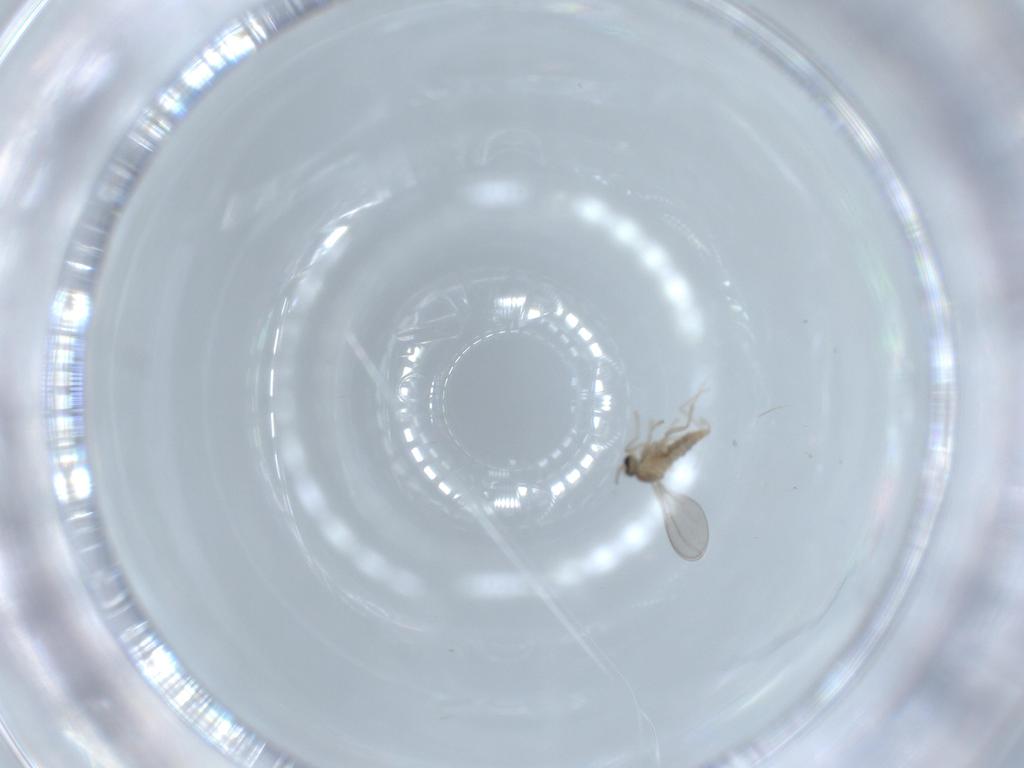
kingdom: Animalia
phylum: Arthropoda
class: Insecta
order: Diptera
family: Cecidomyiidae
